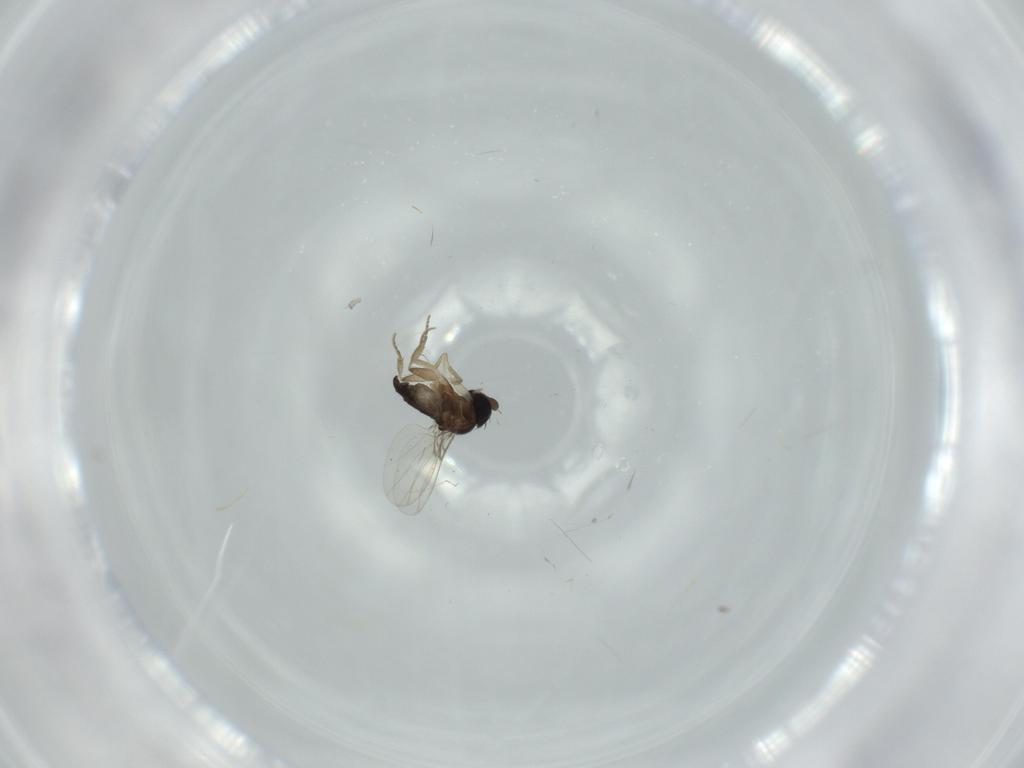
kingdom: Animalia
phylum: Arthropoda
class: Insecta
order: Diptera
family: Phoridae
